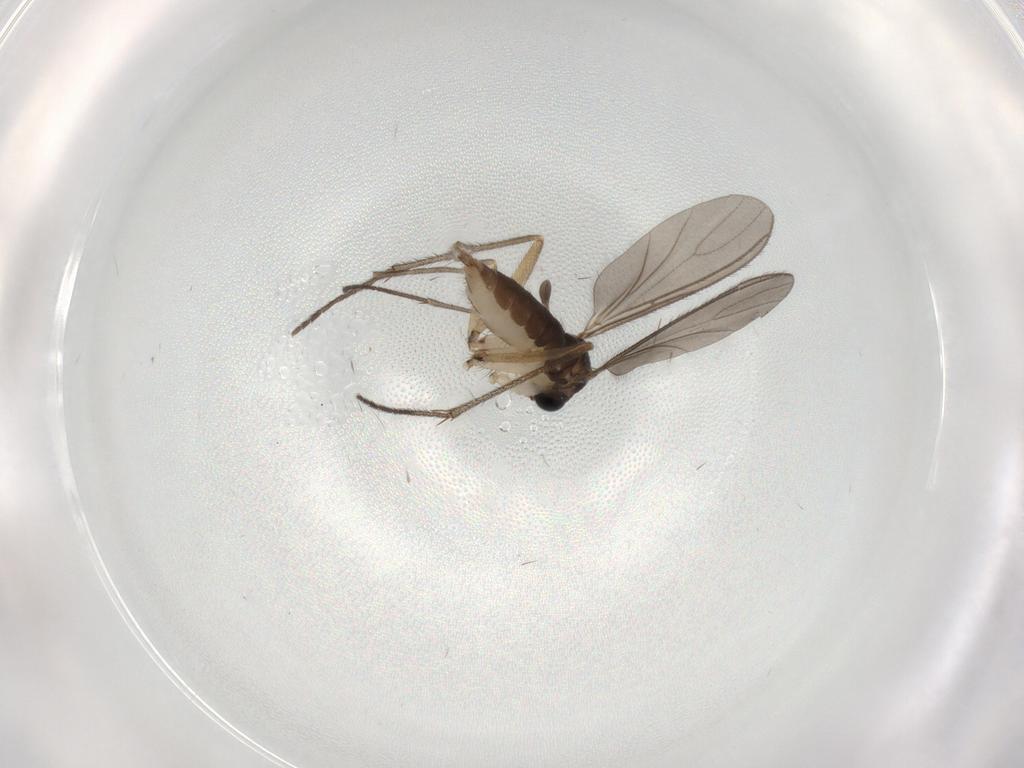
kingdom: Animalia
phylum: Arthropoda
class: Insecta
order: Diptera
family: Sciaridae
